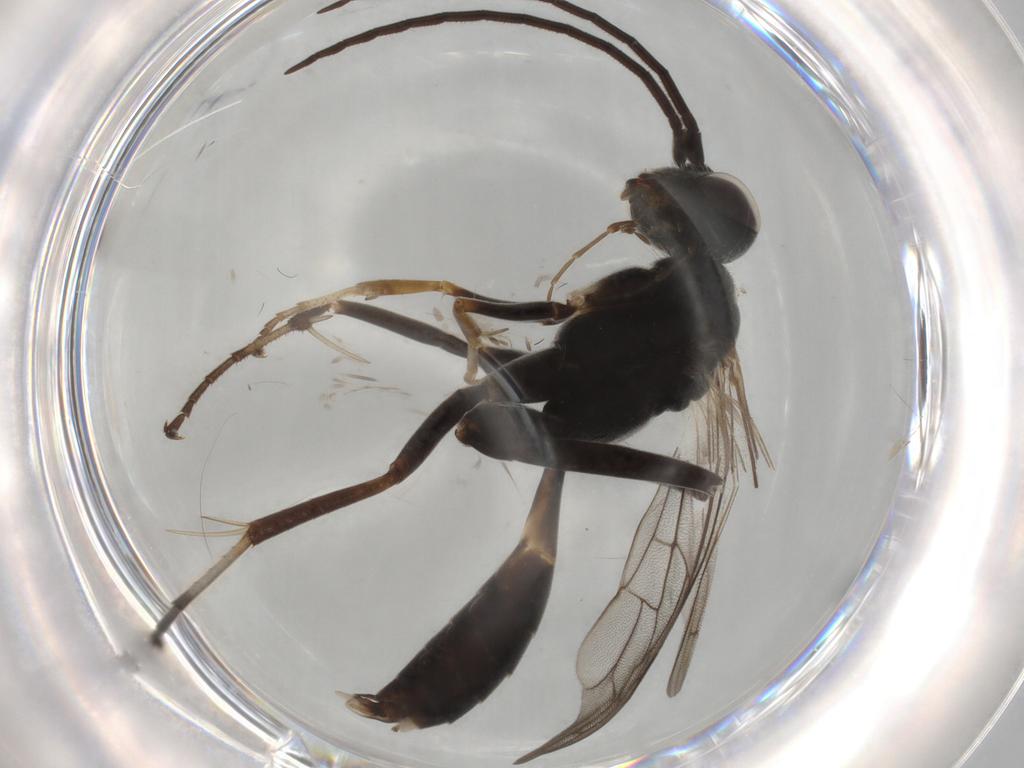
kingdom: Animalia
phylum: Arthropoda
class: Insecta
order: Hymenoptera
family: Pompilidae
